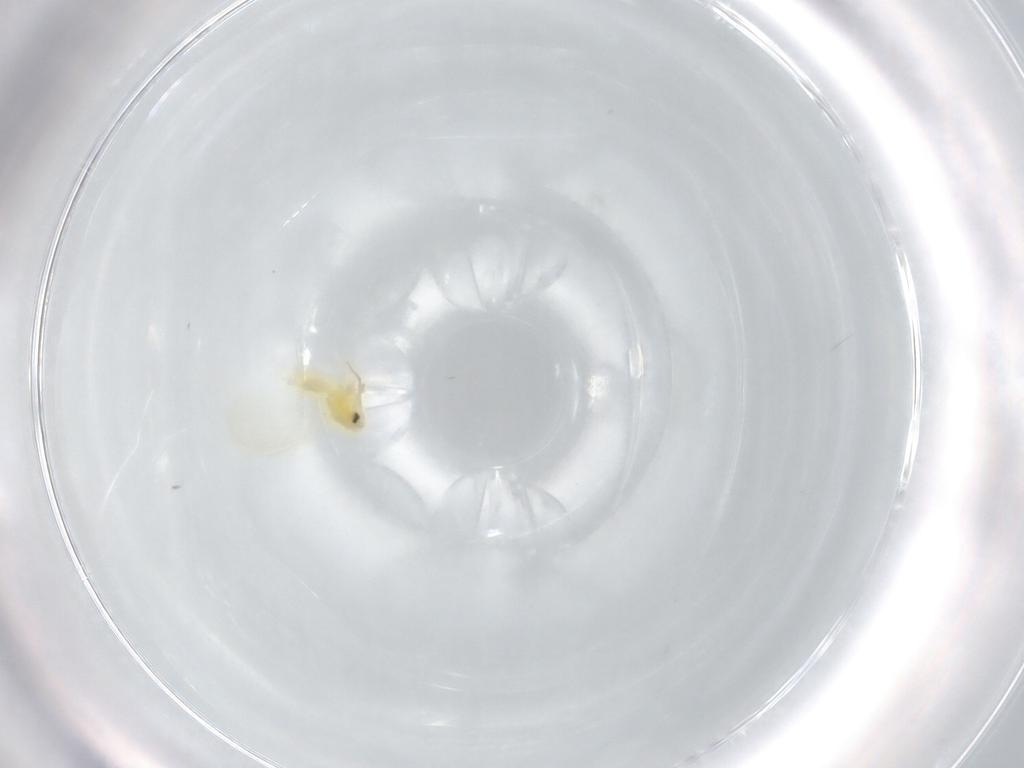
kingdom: Animalia
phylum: Arthropoda
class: Insecta
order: Hemiptera
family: Aleyrodidae
